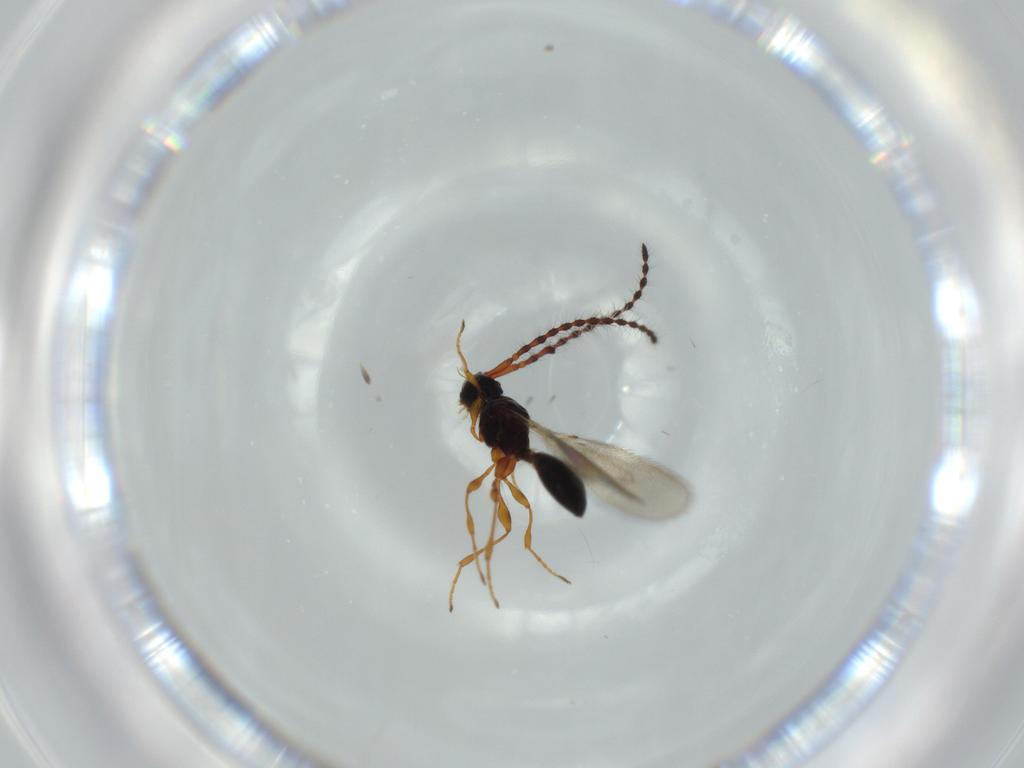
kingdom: Animalia
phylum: Arthropoda
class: Insecta
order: Hymenoptera
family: Diapriidae
